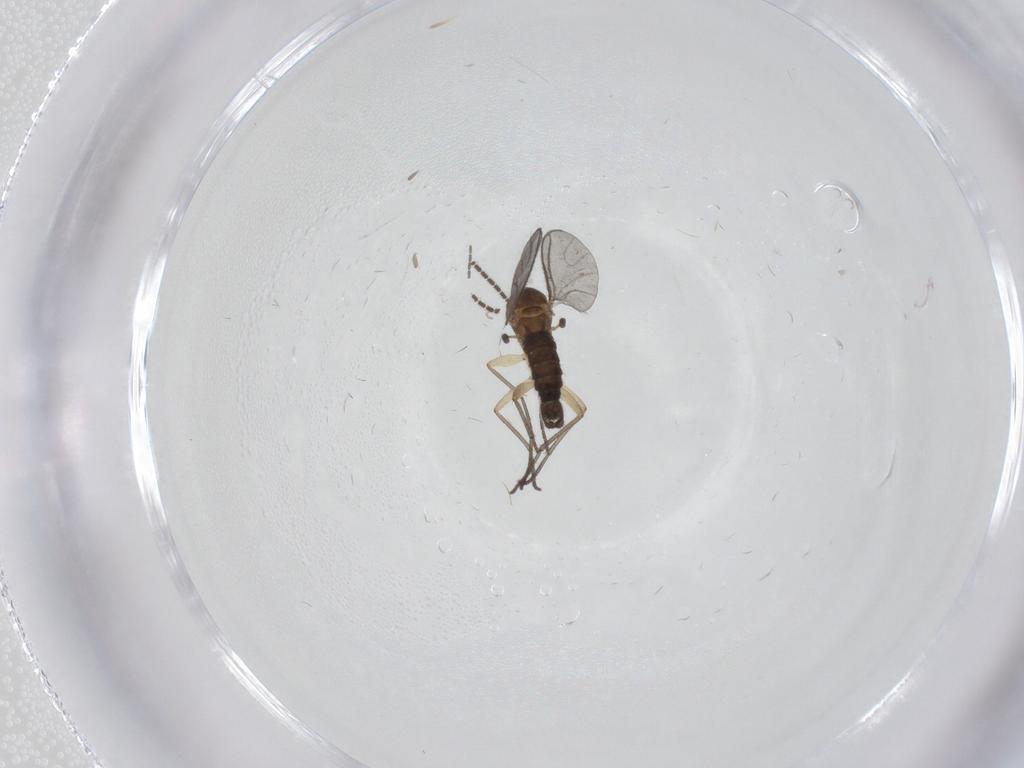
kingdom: Animalia
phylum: Arthropoda
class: Insecta
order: Diptera
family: Cecidomyiidae
